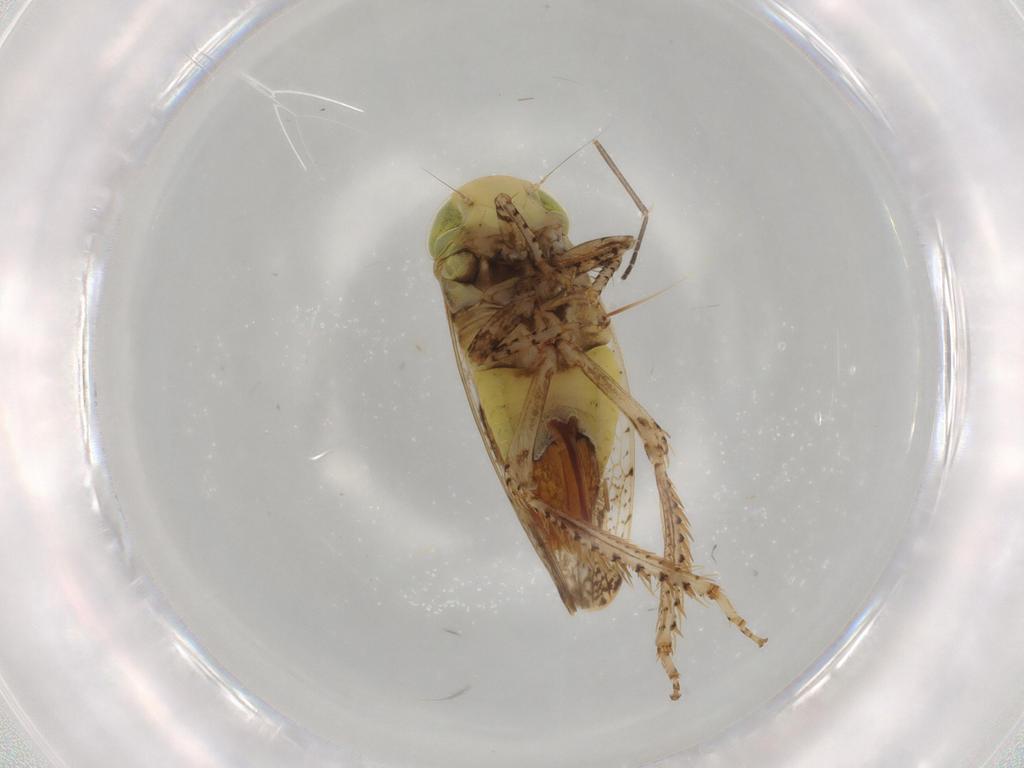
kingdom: Animalia
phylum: Arthropoda
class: Insecta
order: Hemiptera
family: Cicadellidae
